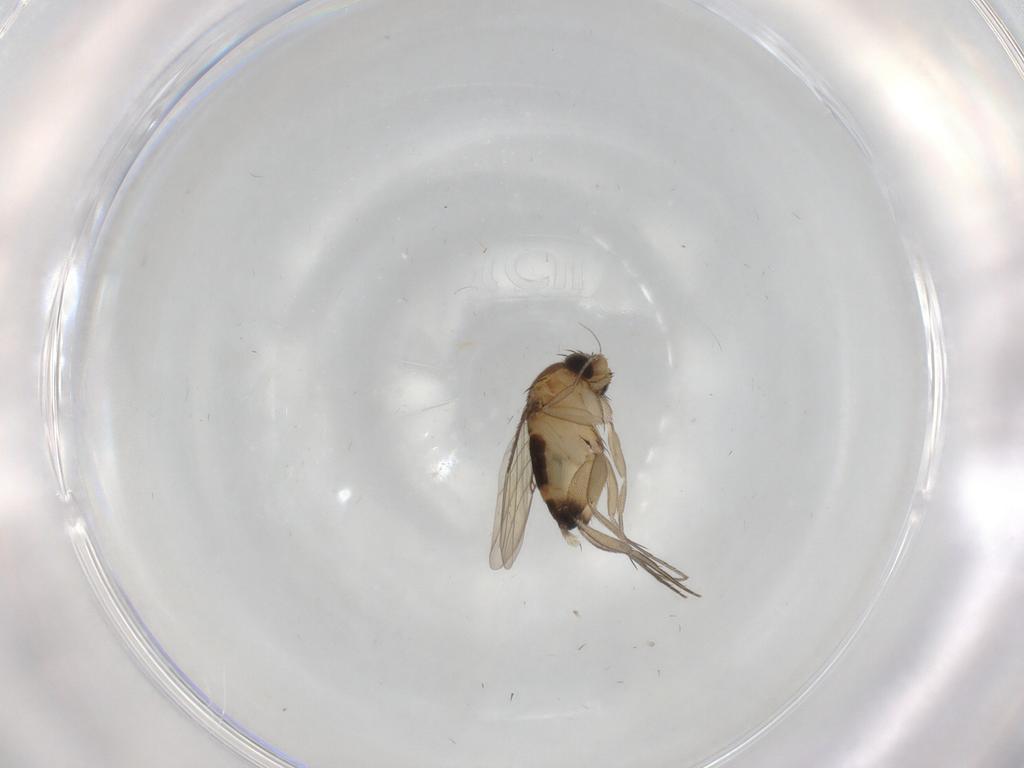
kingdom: Animalia
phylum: Arthropoda
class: Insecta
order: Diptera
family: Phoridae
